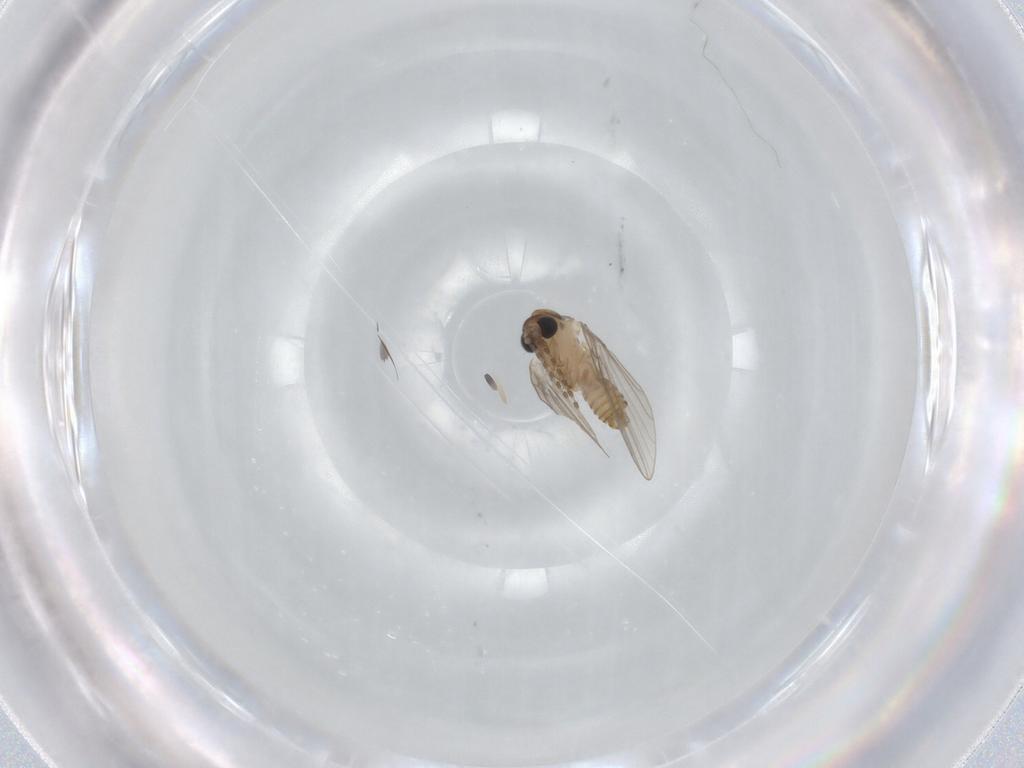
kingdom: Animalia
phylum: Arthropoda
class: Insecta
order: Diptera
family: Psychodidae
